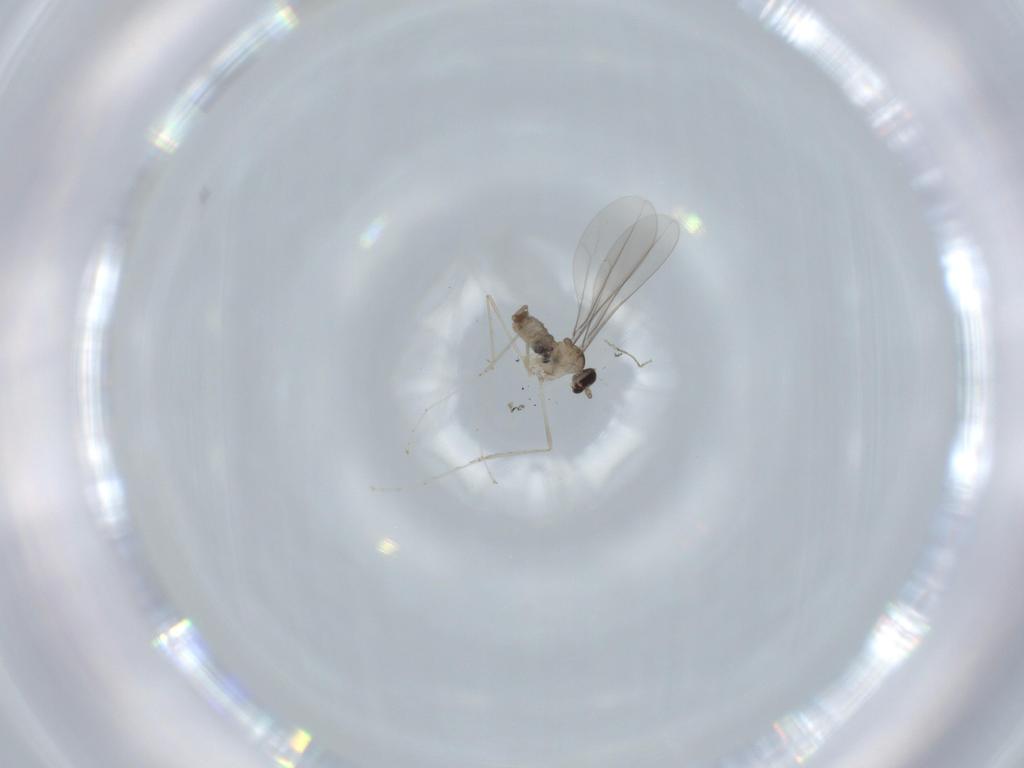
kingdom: Animalia
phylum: Arthropoda
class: Insecta
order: Diptera
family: Cecidomyiidae
